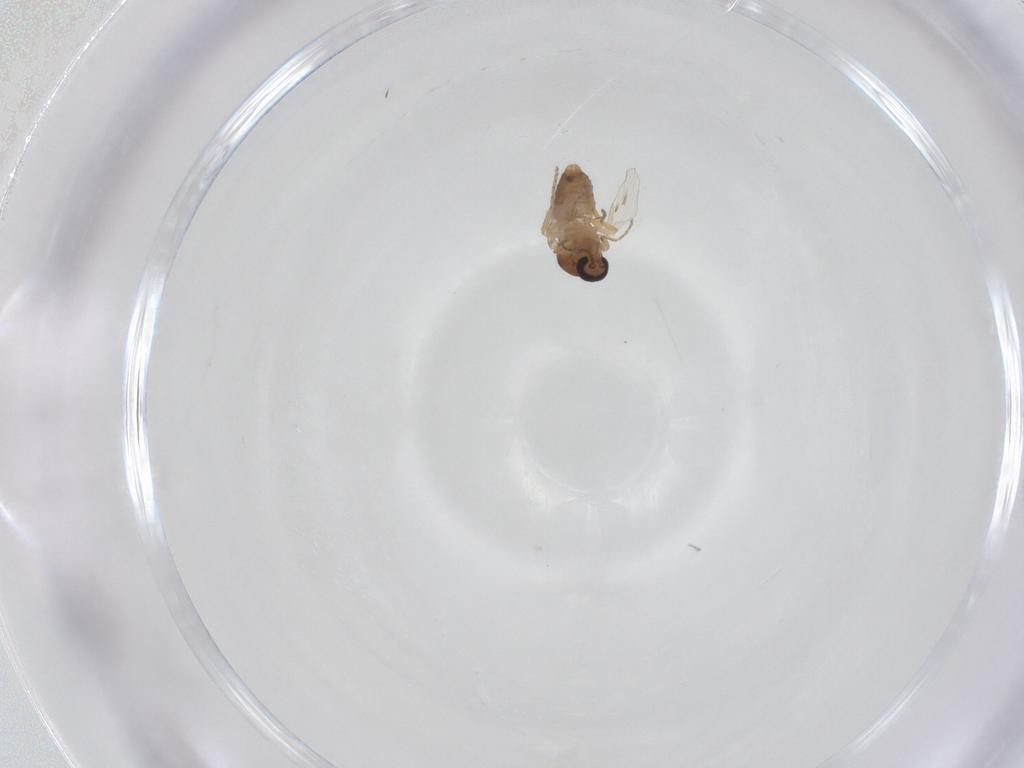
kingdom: Animalia
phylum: Arthropoda
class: Insecta
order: Diptera
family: Ceratopogonidae
